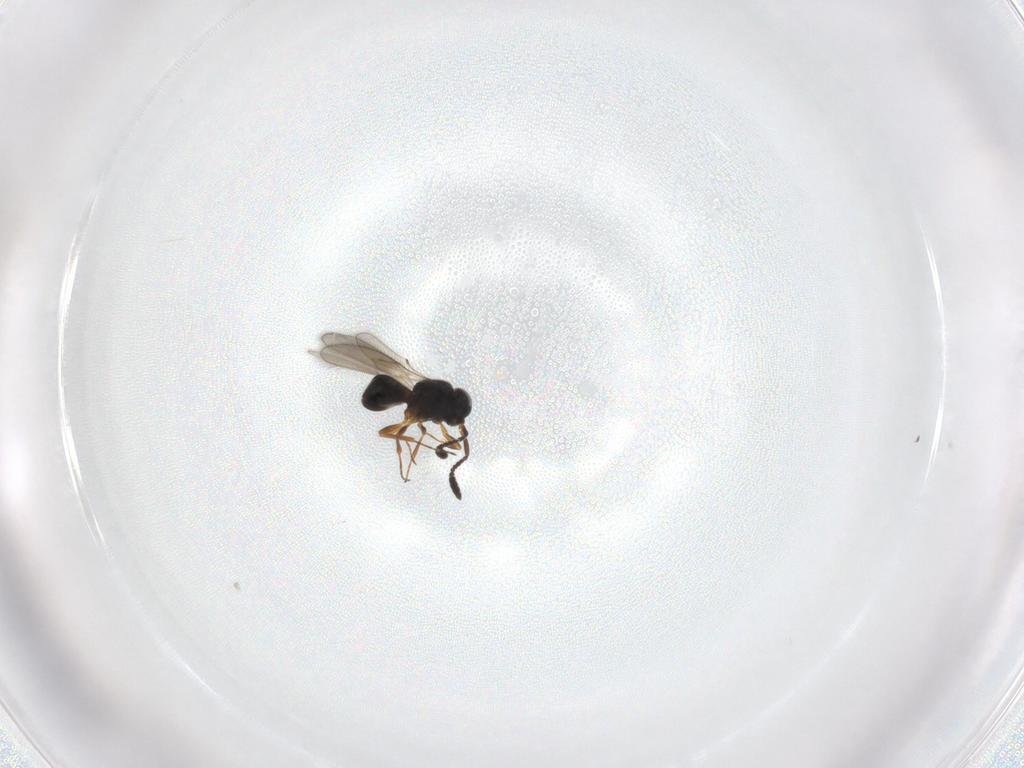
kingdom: Animalia
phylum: Arthropoda
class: Insecta
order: Hymenoptera
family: Scelionidae
